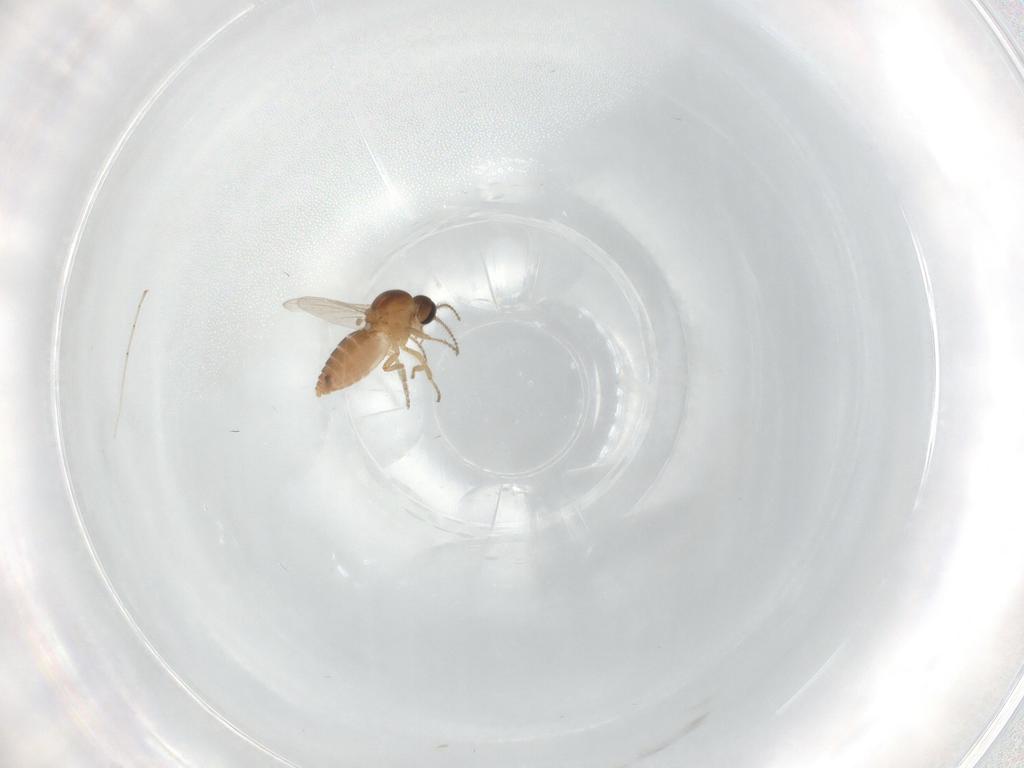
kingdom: Animalia
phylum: Arthropoda
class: Insecta
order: Diptera
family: Ceratopogonidae
